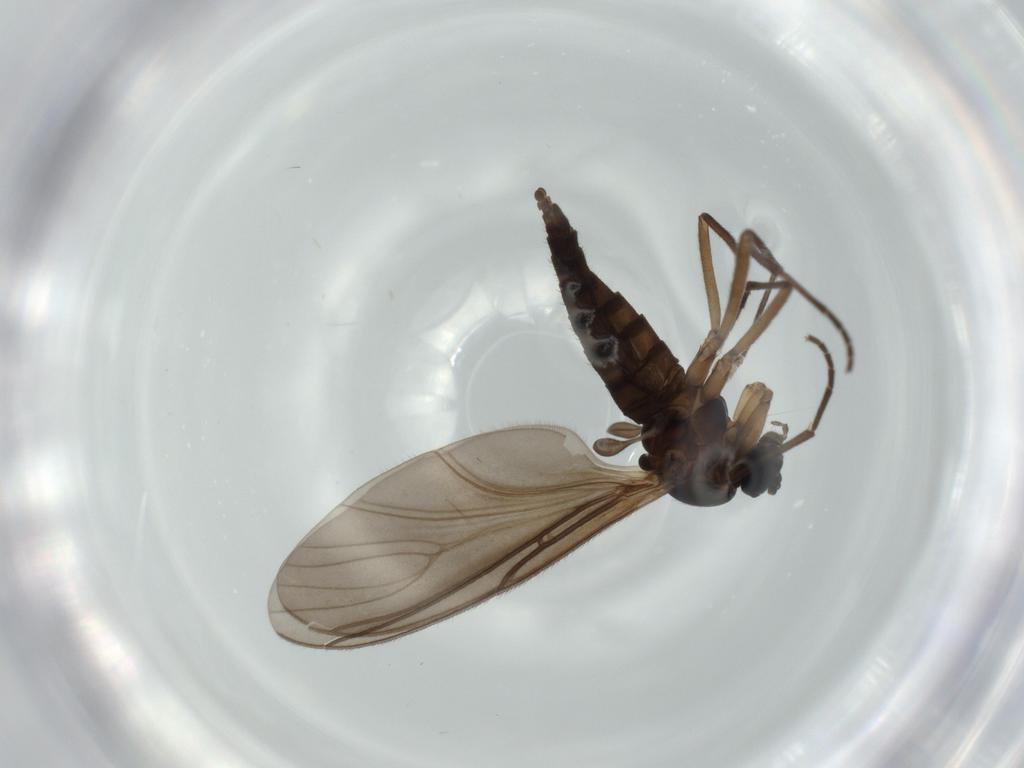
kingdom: Animalia
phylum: Arthropoda
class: Insecta
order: Diptera
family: Sciaridae
